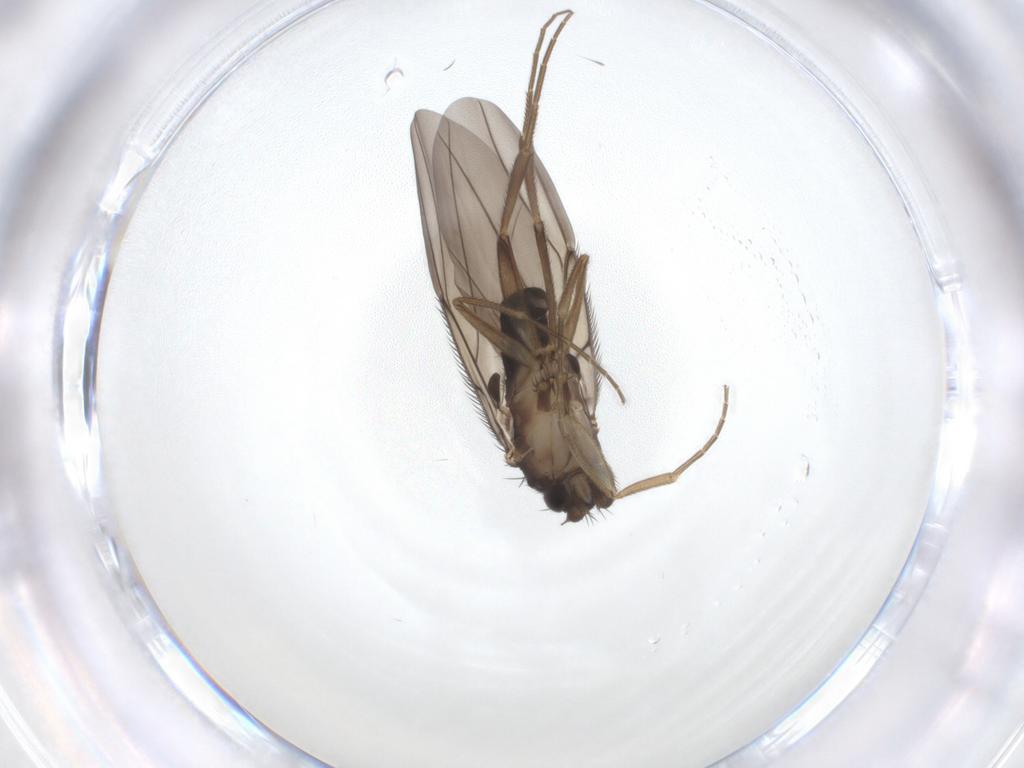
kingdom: Animalia
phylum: Arthropoda
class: Insecta
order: Diptera
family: Phoridae
